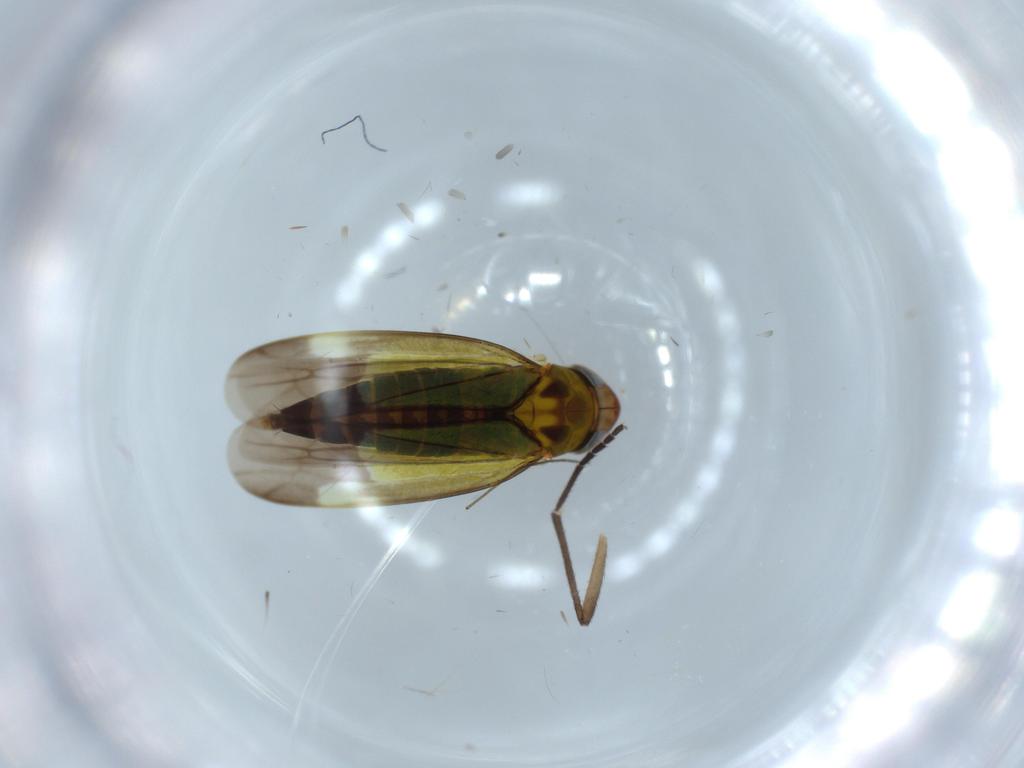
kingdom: Animalia
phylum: Arthropoda
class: Insecta
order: Hemiptera
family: Cicadellidae
